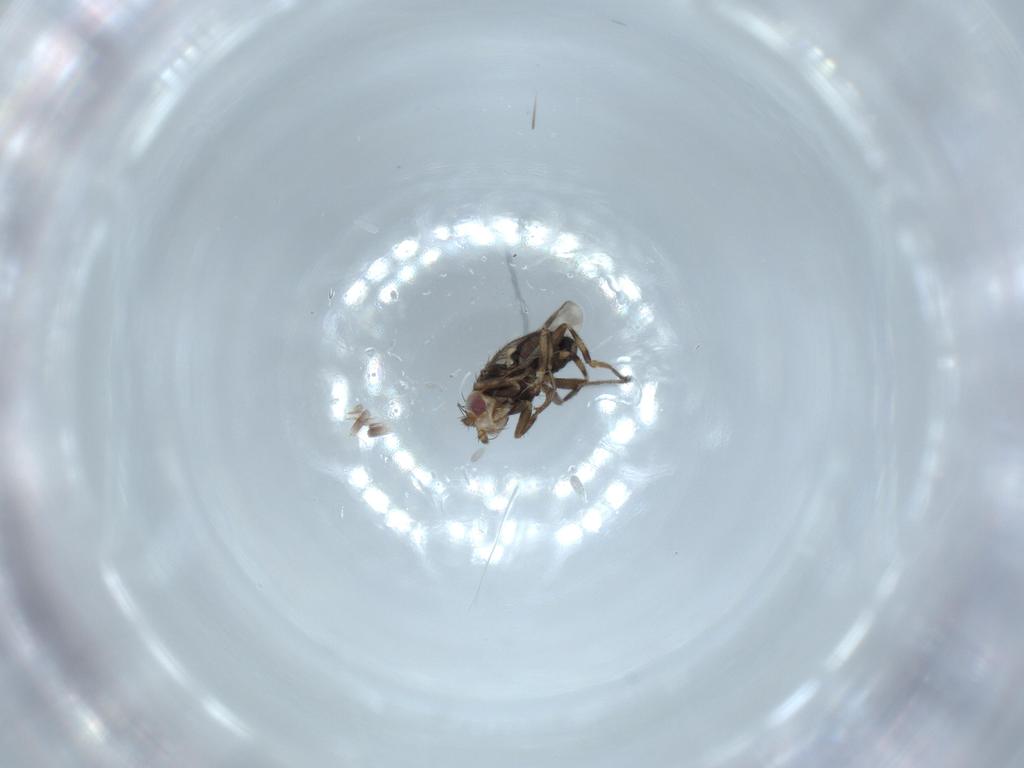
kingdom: Animalia
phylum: Arthropoda
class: Insecta
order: Diptera
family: Sphaeroceridae
